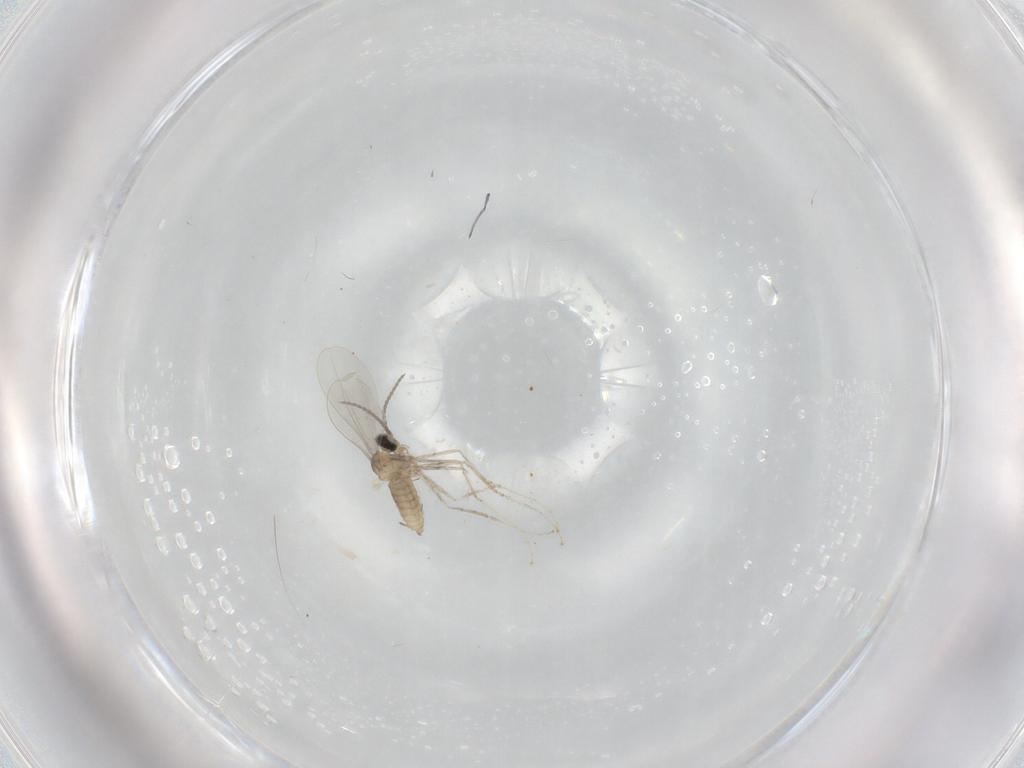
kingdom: Animalia
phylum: Arthropoda
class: Insecta
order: Diptera
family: Cecidomyiidae
